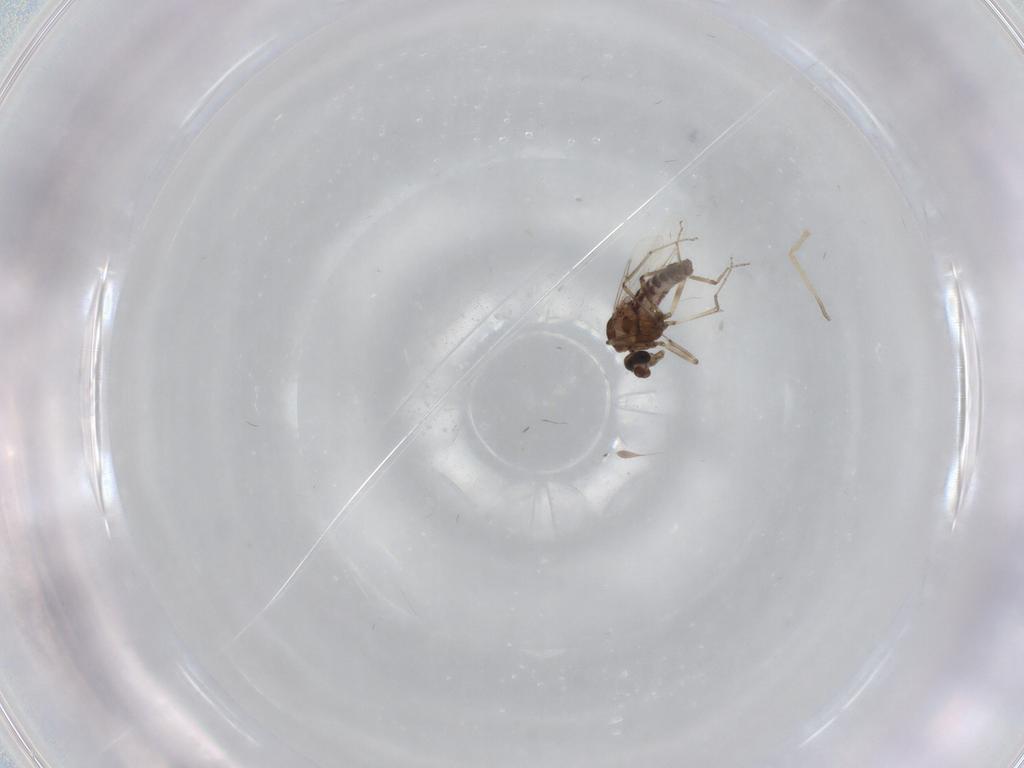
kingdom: Animalia
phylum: Arthropoda
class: Insecta
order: Diptera
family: Ceratopogonidae
